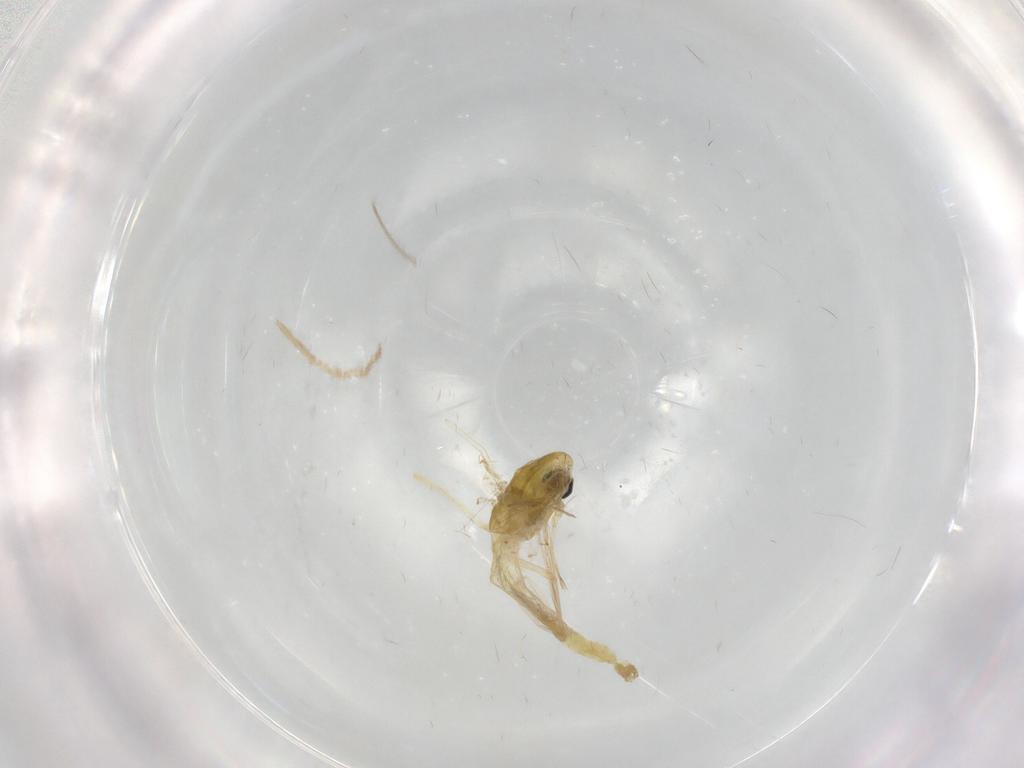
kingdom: Animalia
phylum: Arthropoda
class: Insecta
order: Diptera
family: Chironomidae
